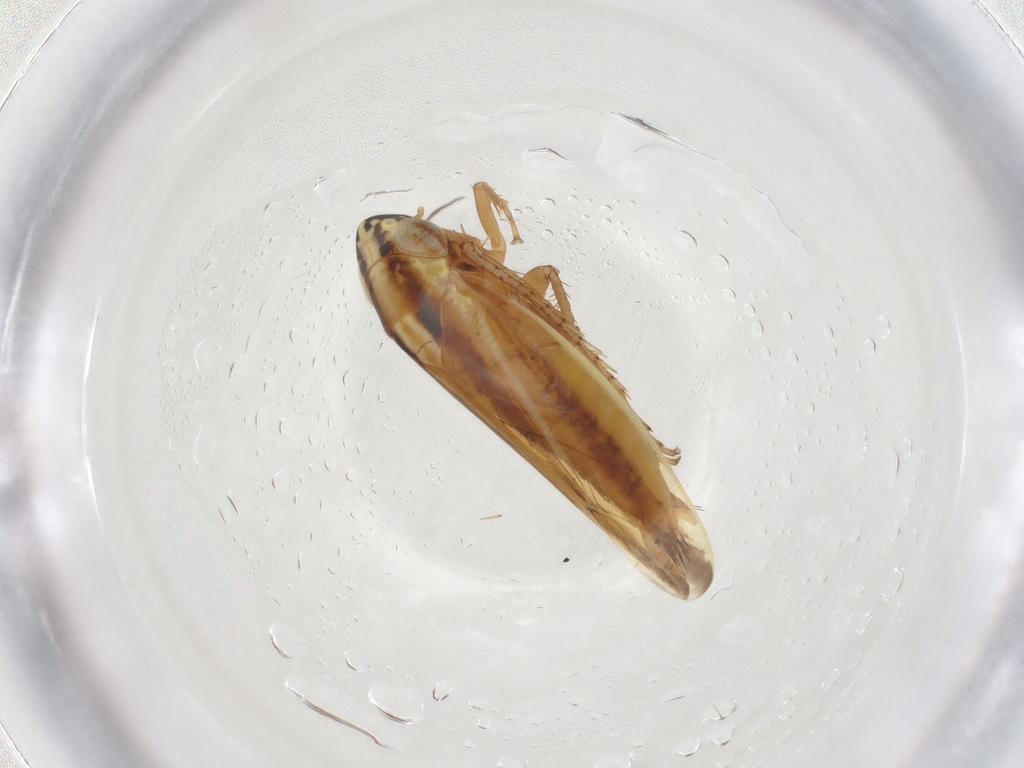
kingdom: Animalia
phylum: Arthropoda
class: Insecta
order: Hemiptera
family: Cicadellidae
